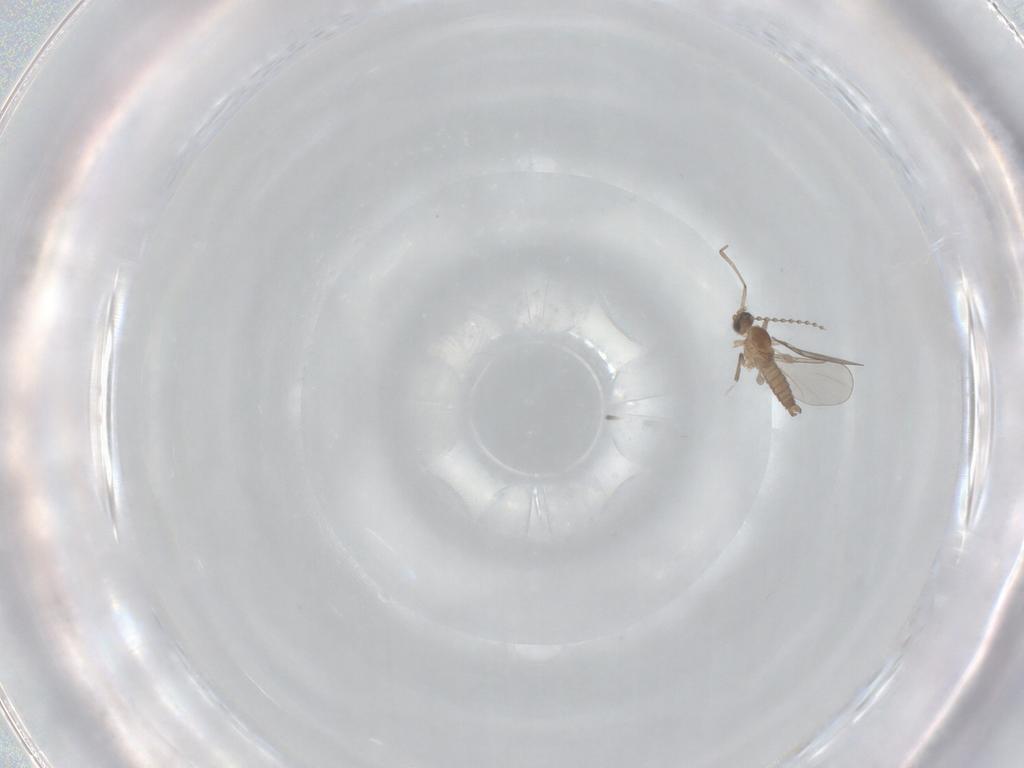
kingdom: Animalia
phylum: Arthropoda
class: Insecta
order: Diptera
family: Cecidomyiidae
